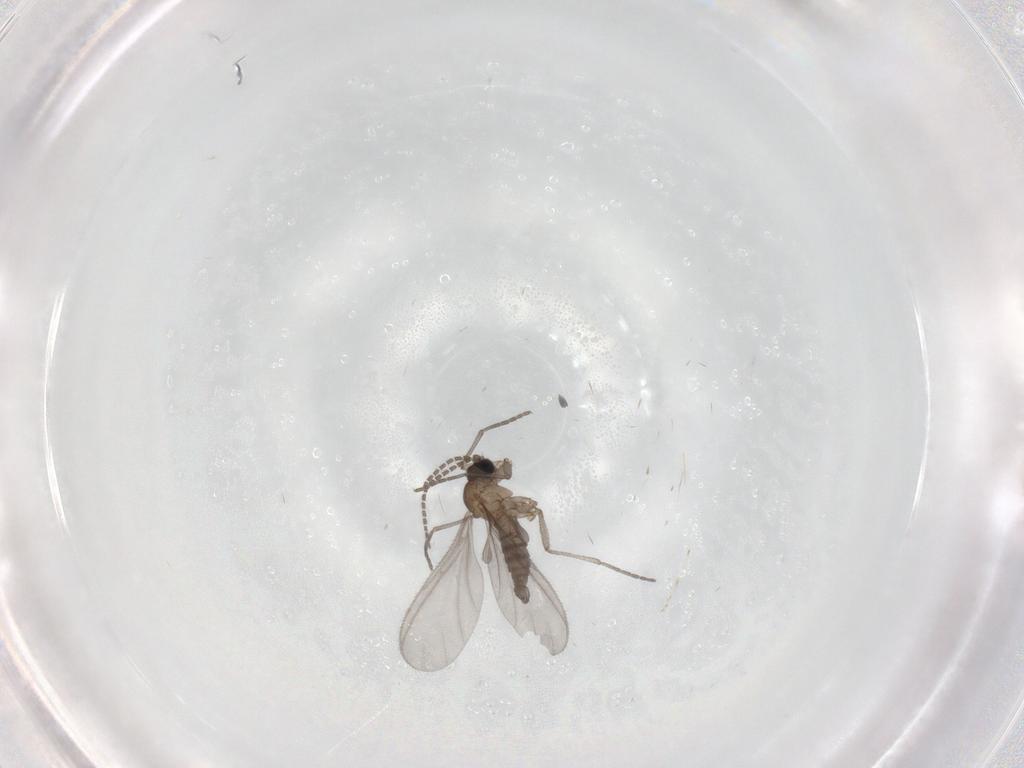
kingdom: Animalia
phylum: Arthropoda
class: Insecta
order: Diptera
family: Sciaridae
